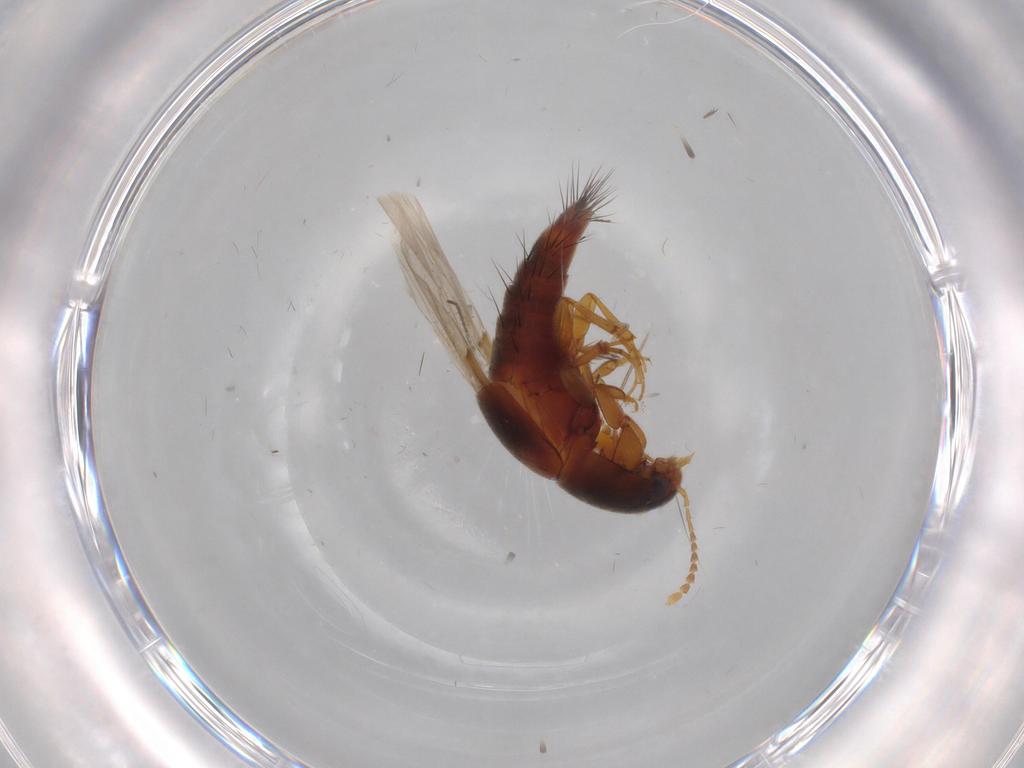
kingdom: Animalia
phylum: Arthropoda
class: Insecta
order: Coleoptera
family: Staphylinidae
